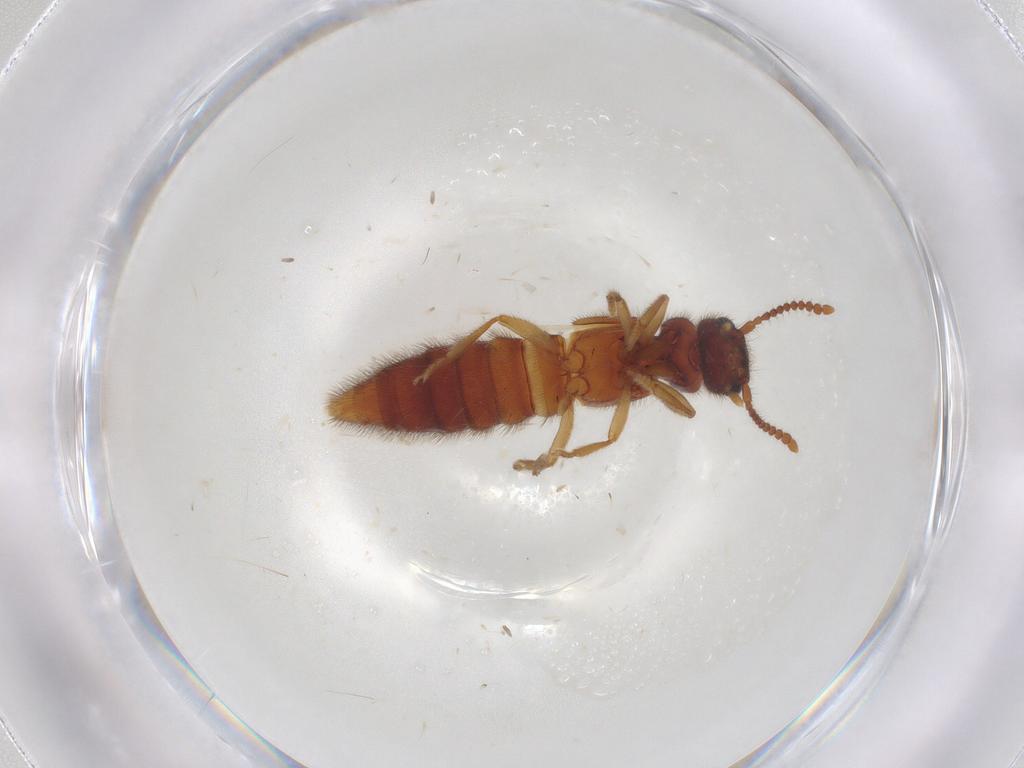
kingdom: Animalia
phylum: Arthropoda
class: Insecta
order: Coleoptera
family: Staphylinidae
